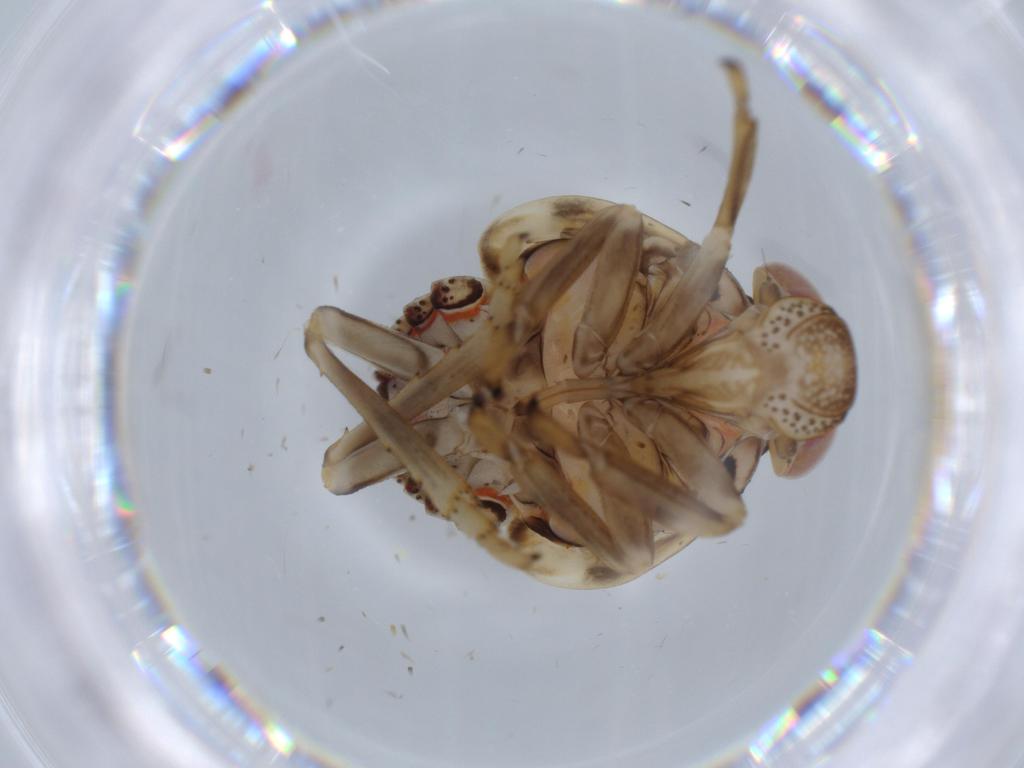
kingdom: Animalia
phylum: Arthropoda
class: Insecta
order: Hemiptera
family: Issidae
